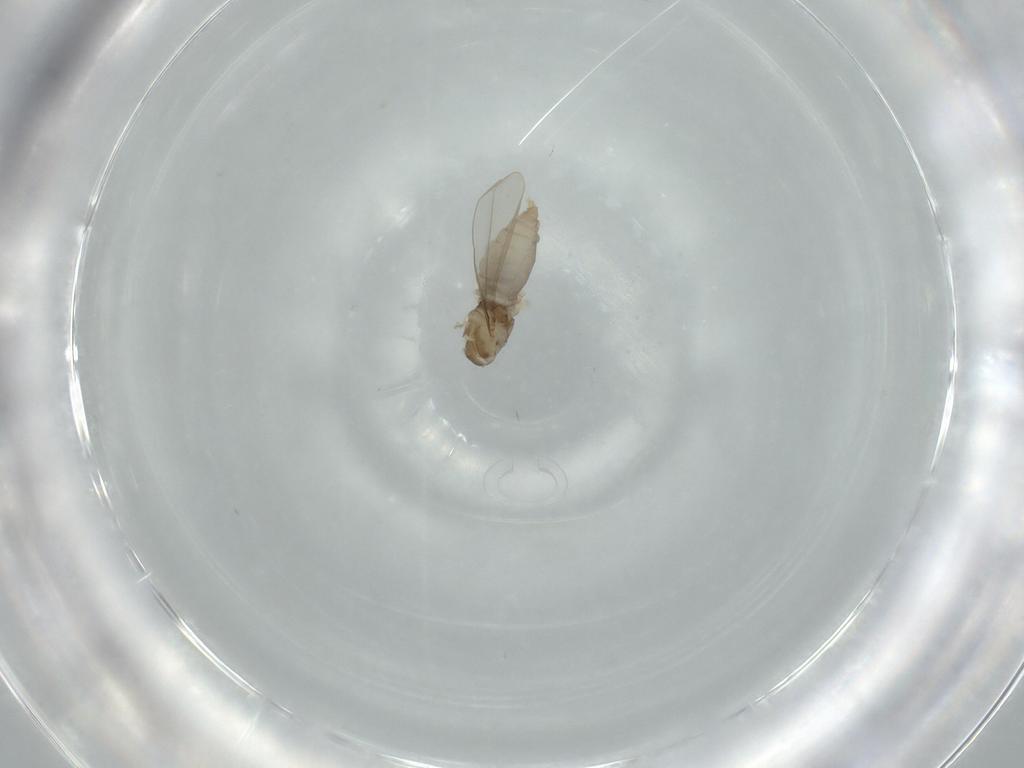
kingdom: Animalia
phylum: Arthropoda
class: Insecta
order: Diptera
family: Cecidomyiidae
